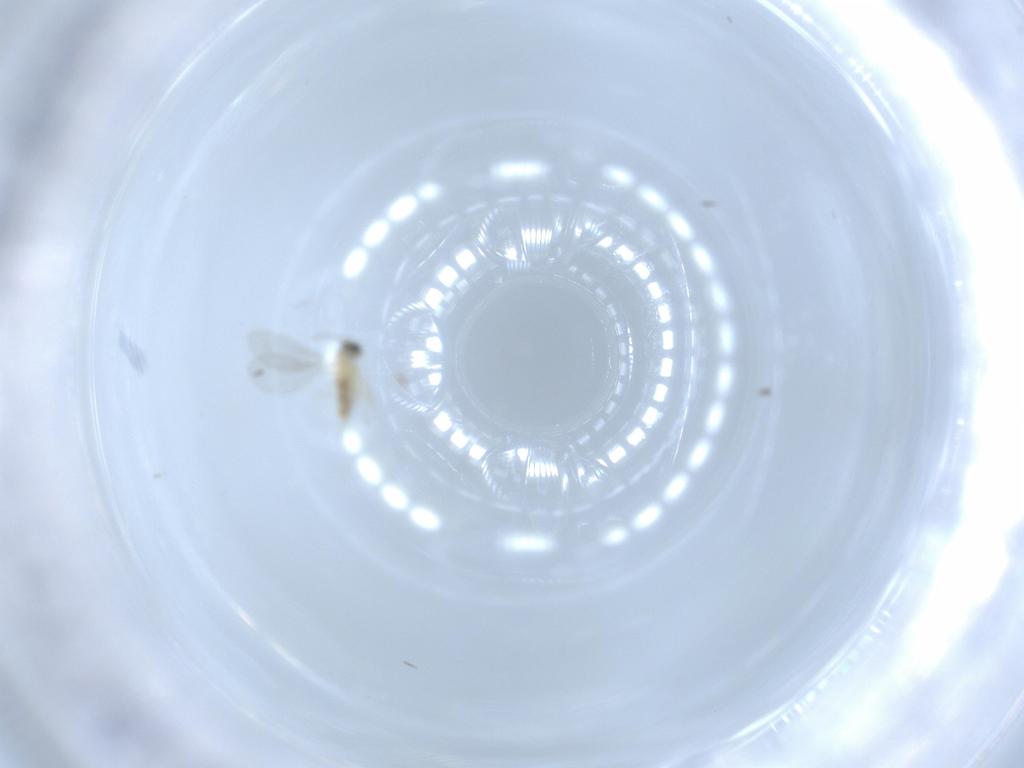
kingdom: Animalia
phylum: Arthropoda
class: Insecta
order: Diptera
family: Cecidomyiidae
